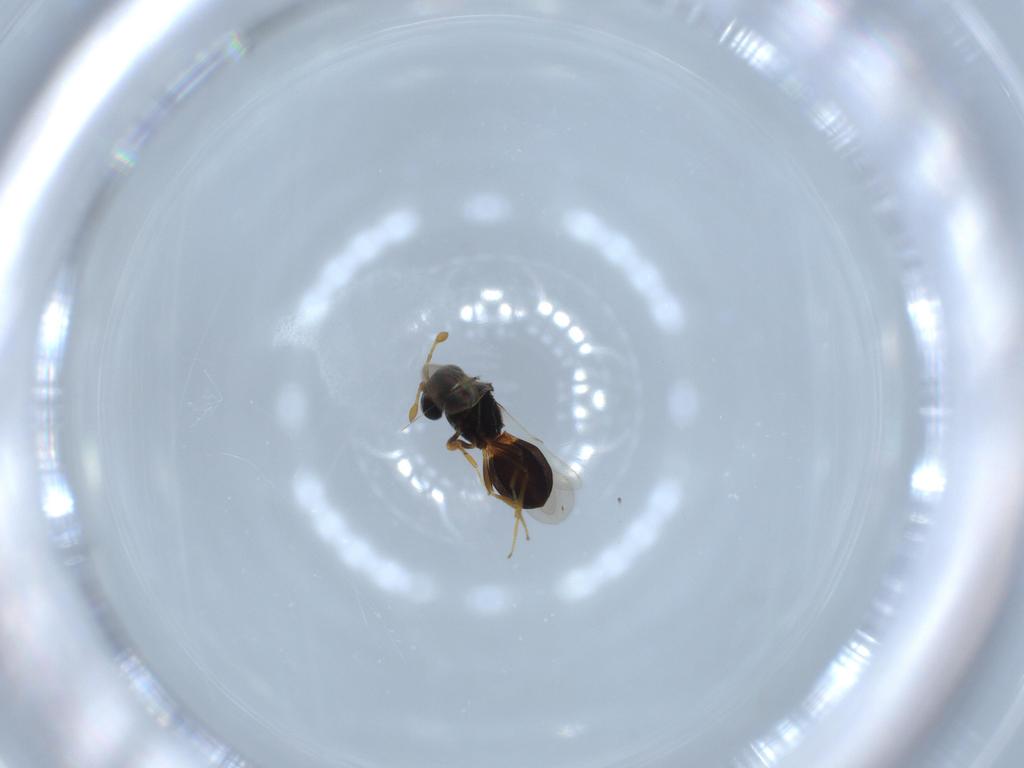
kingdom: Animalia
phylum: Arthropoda
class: Insecta
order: Hymenoptera
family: Scelionidae
